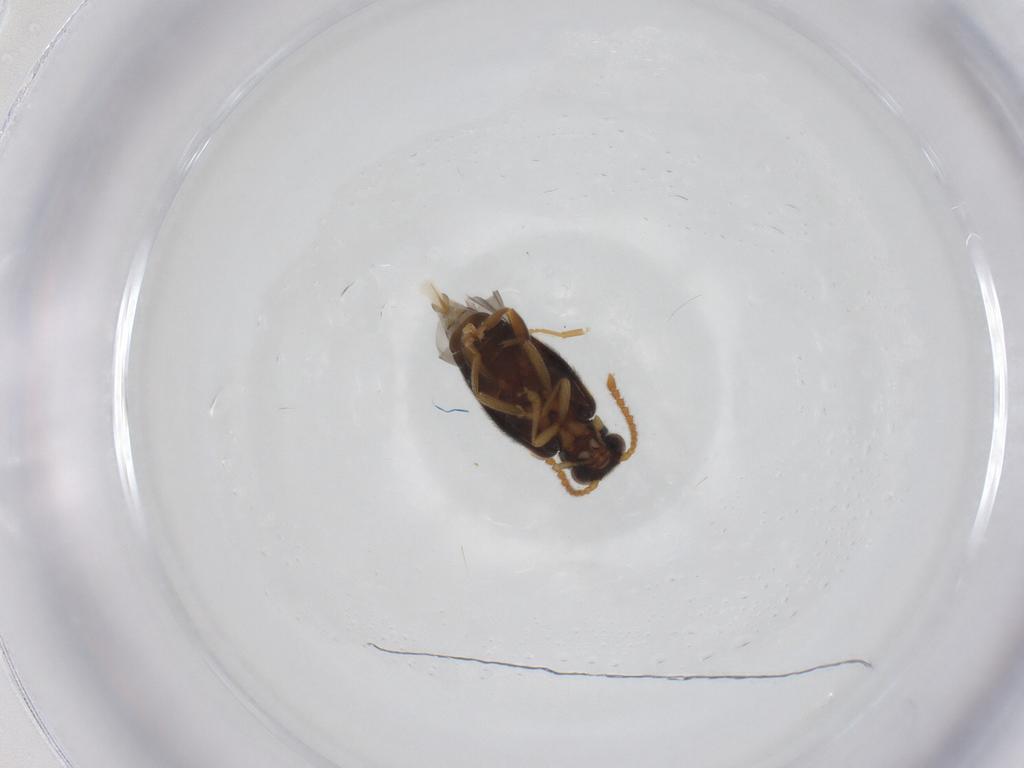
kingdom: Animalia
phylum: Arthropoda
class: Insecta
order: Coleoptera
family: Aderidae
